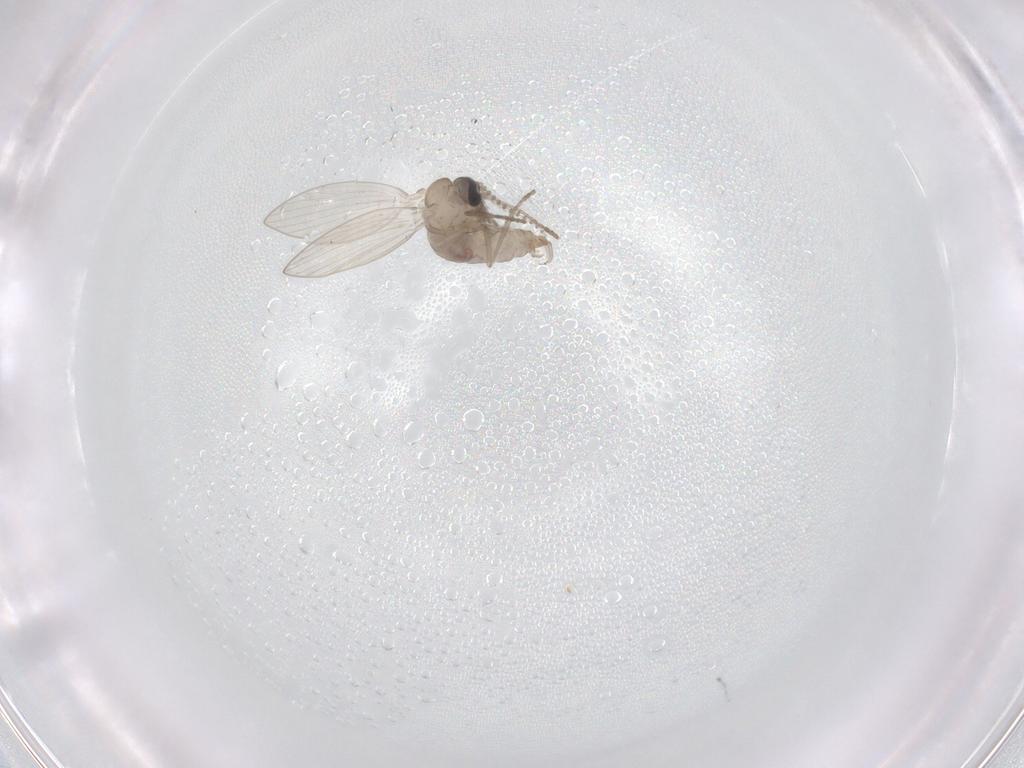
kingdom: Animalia
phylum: Arthropoda
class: Insecta
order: Diptera
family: Psychodidae
